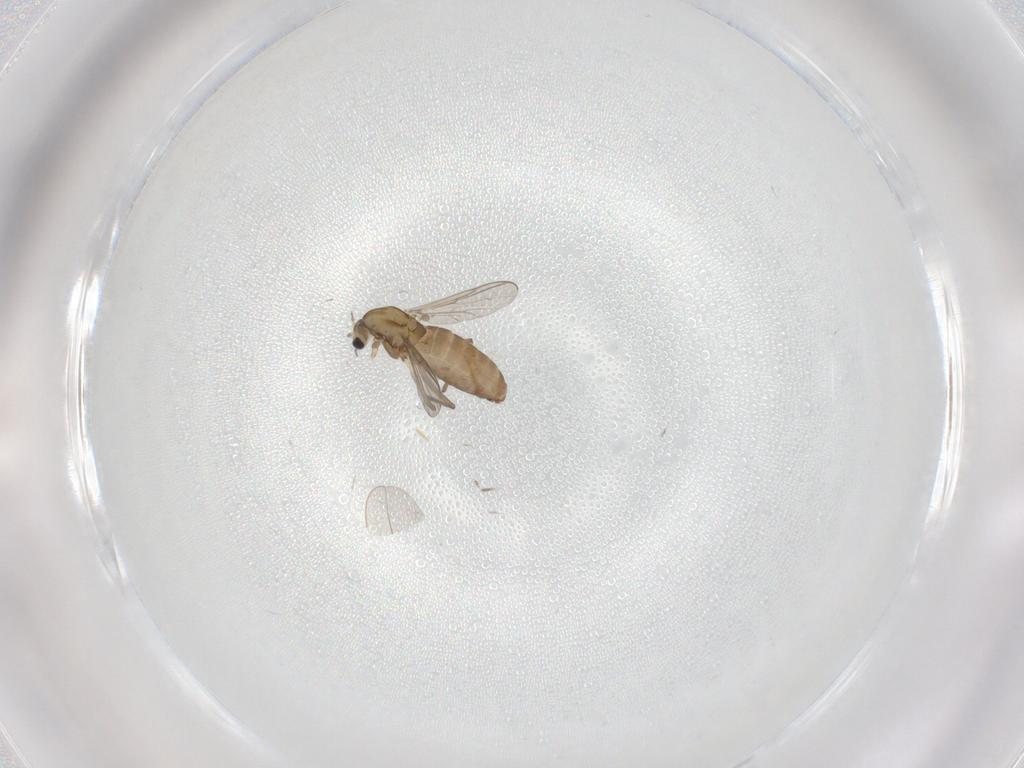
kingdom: Animalia
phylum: Arthropoda
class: Insecta
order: Diptera
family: Chironomidae
